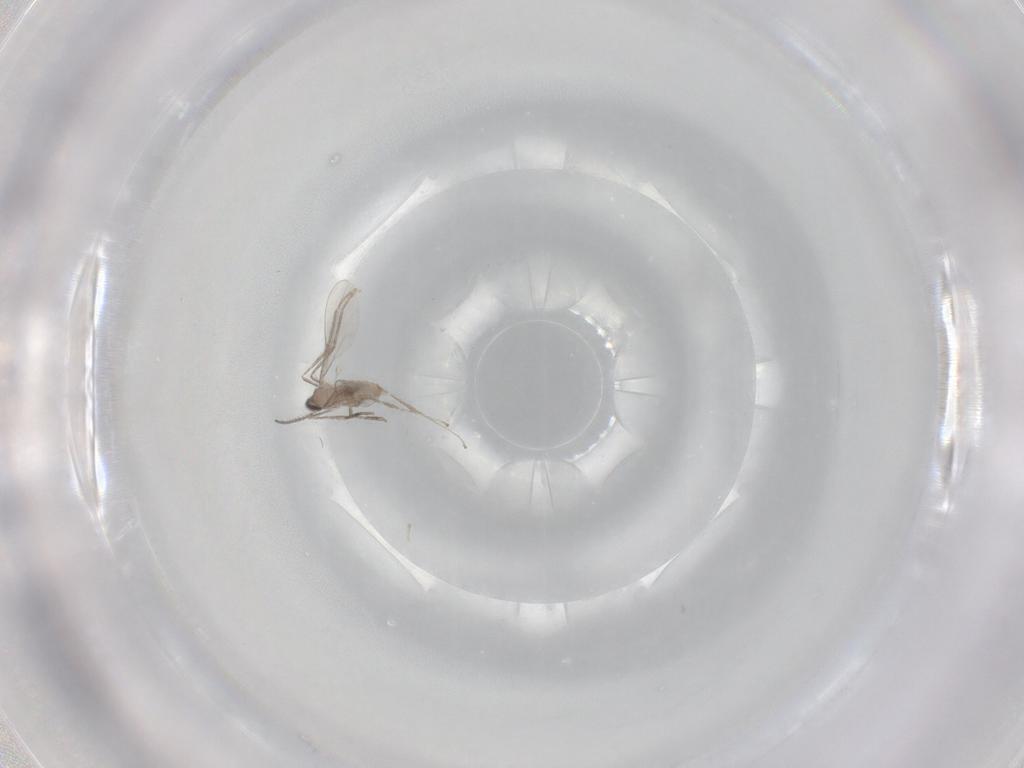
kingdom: Animalia
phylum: Arthropoda
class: Insecta
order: Diptera
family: Cecidomyiidae
